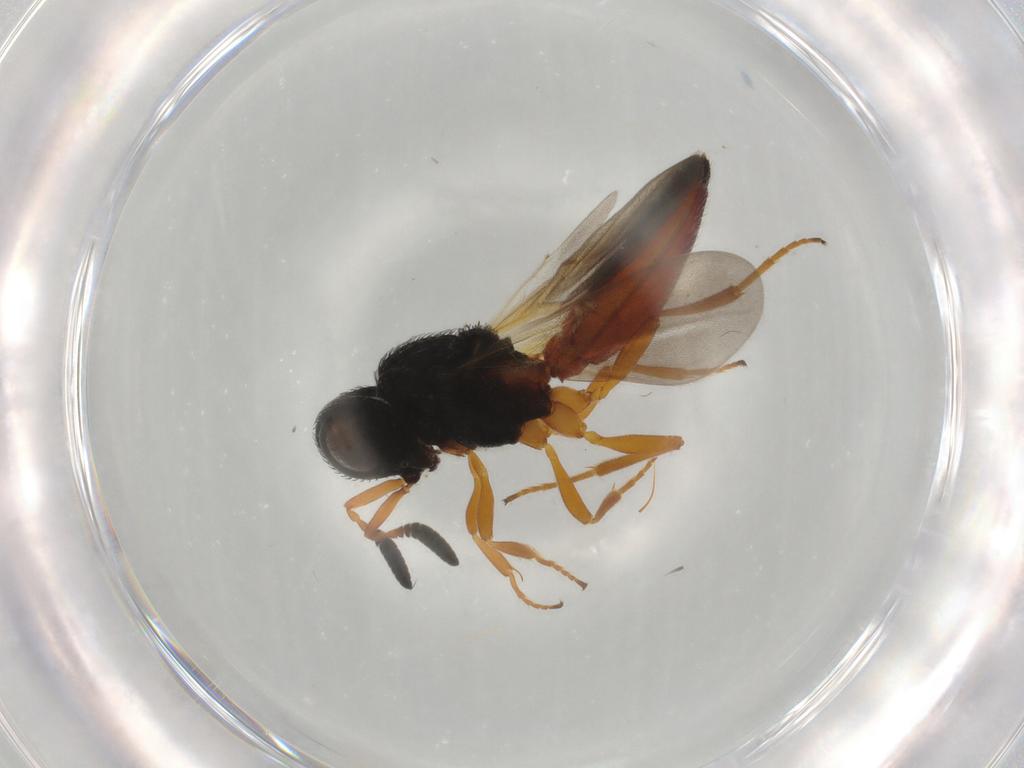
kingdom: Animalia
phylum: Arthropoda
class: Insecta
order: Hymenoptera
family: Scelionidae
